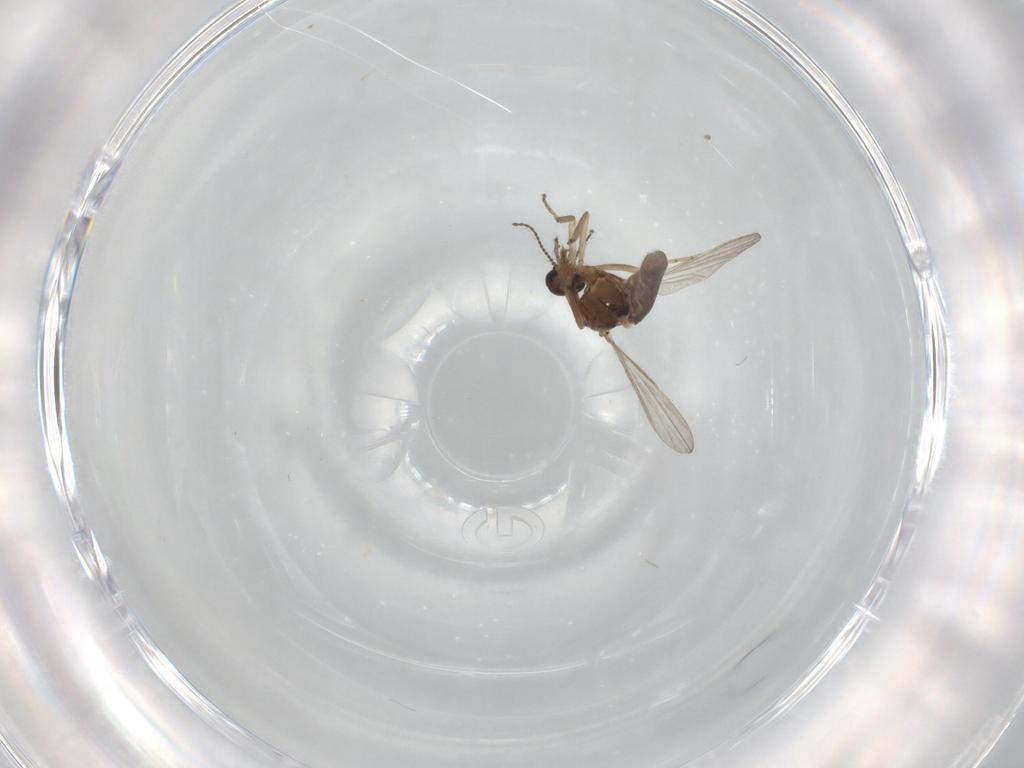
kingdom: Animalia
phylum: Arthropoda
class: Insecta
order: Diptera
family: Ceratopogonidae
